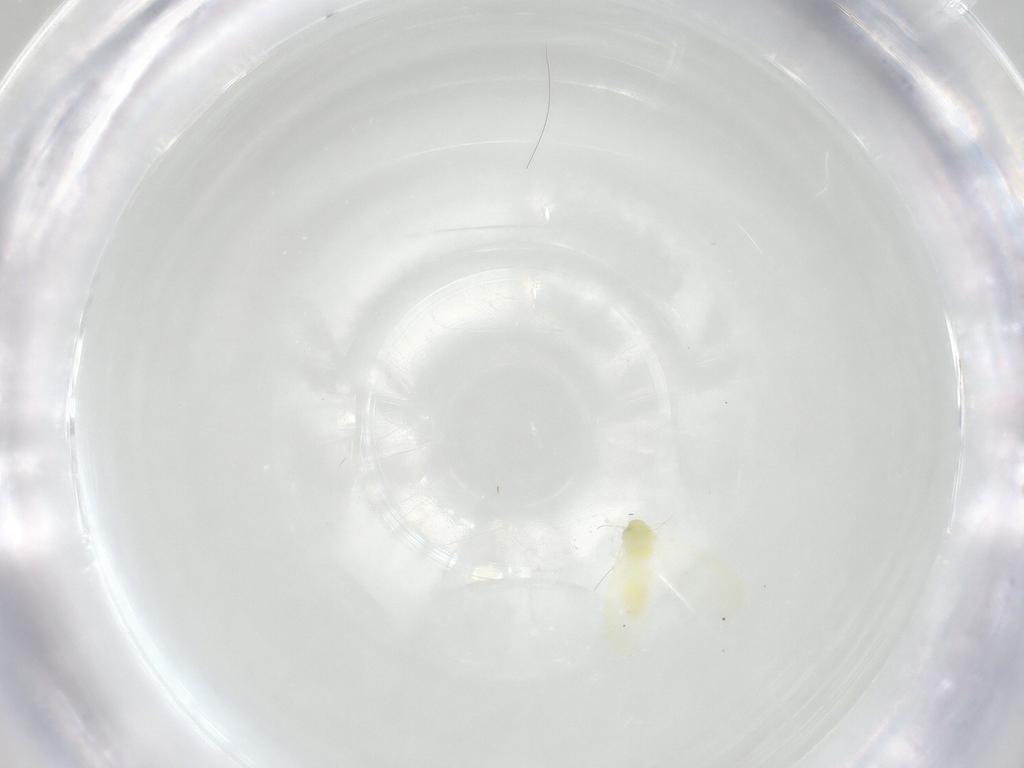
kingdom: Animalia
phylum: Arthropoda
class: Insecta
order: Hemiptera
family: Aleyrodidae
